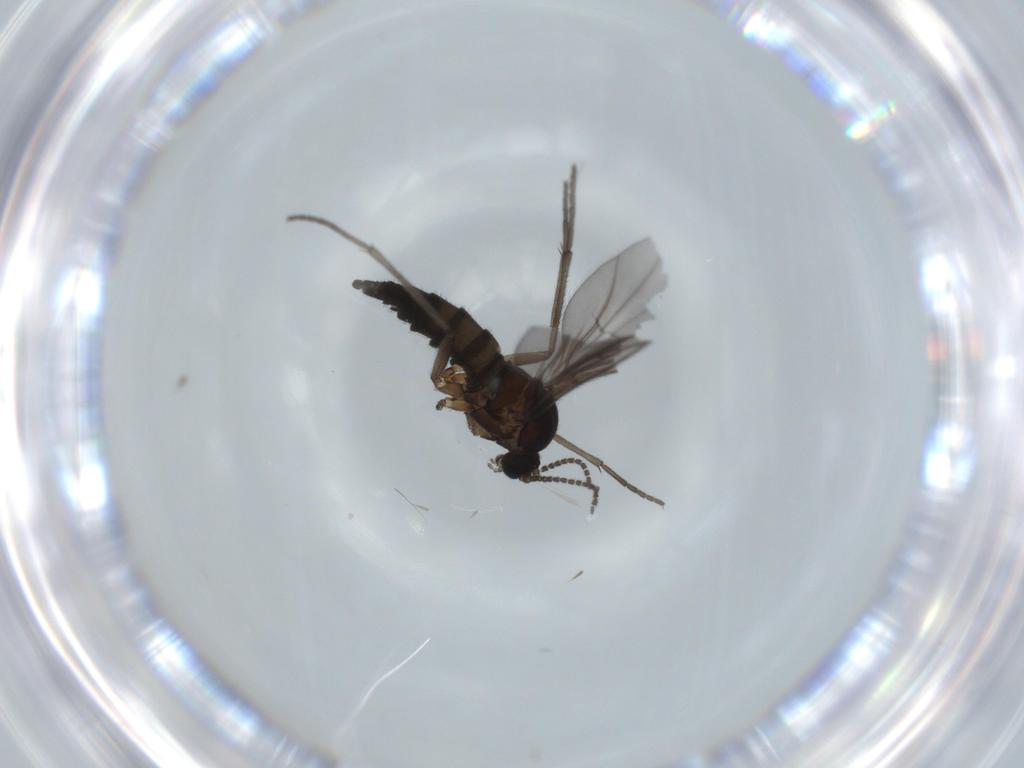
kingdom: Animalia
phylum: Arthropoda
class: Insecta
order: Diptera
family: Sciaridae
